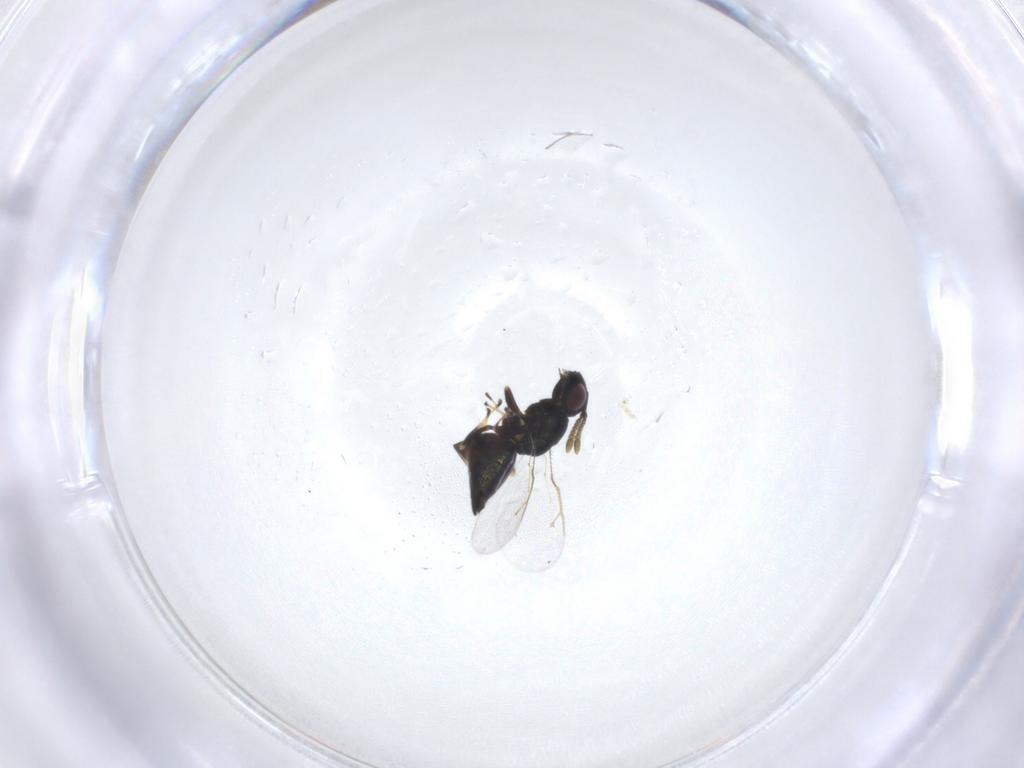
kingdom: Animalia
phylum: Arthropoda
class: Insecta
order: Hymenoptera
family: Pteromalidae
